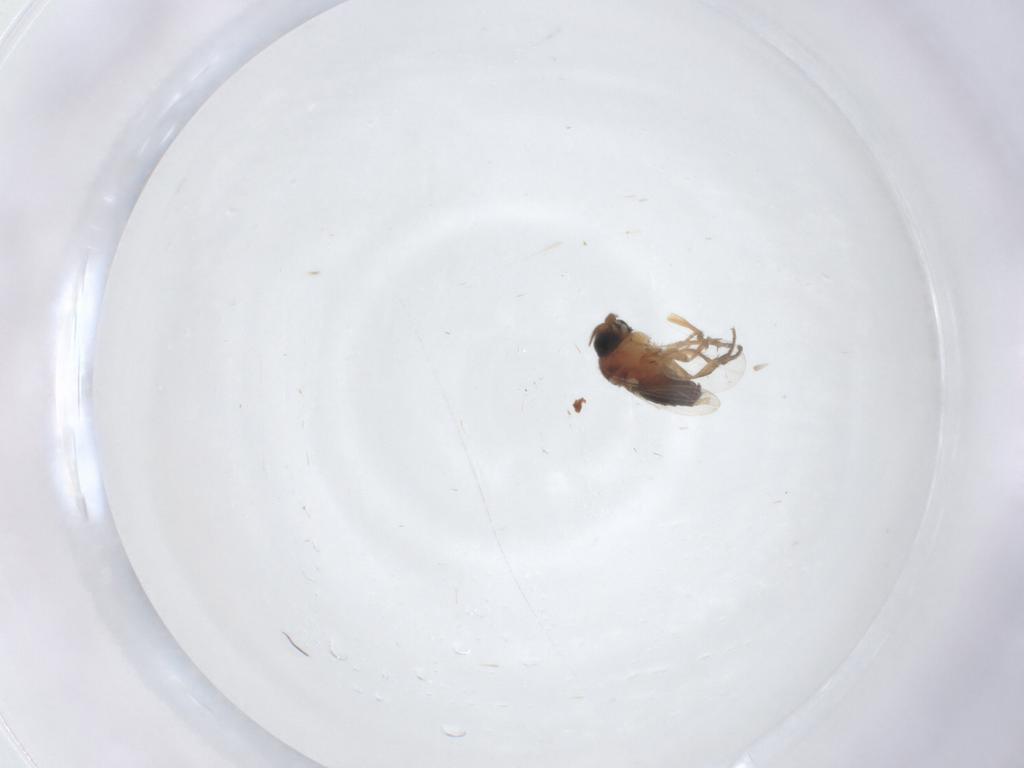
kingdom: Animalia
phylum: Arthropoda
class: Insecta
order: Diptera
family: Phoridae
